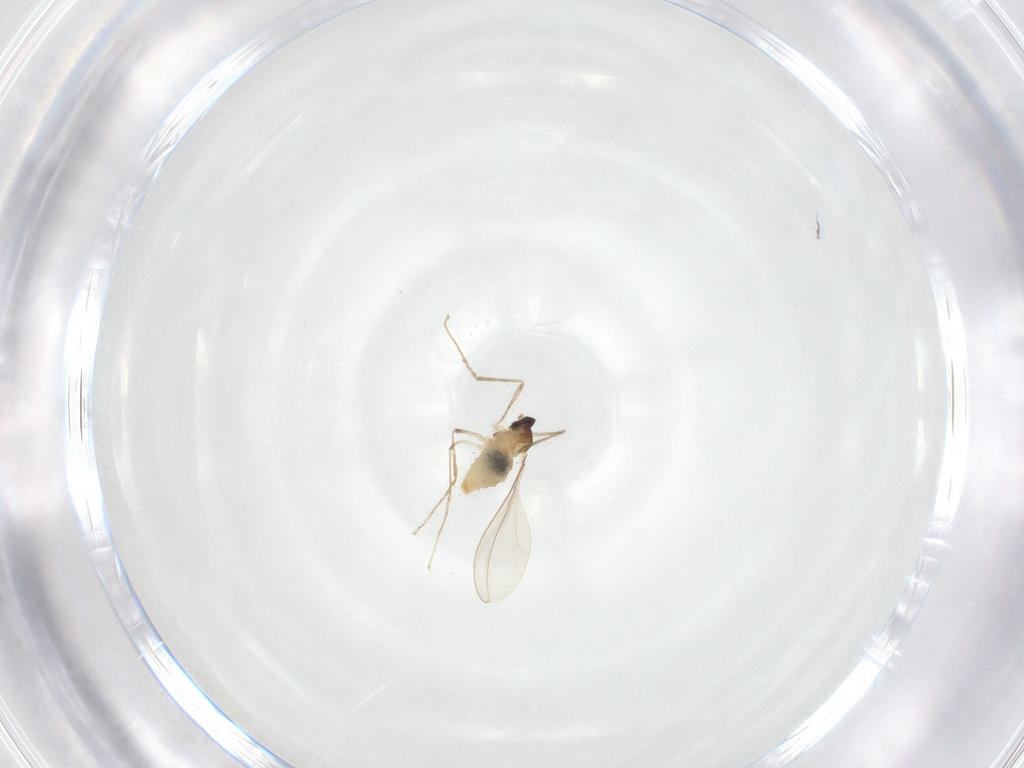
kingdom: Animalia
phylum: Arthropoda
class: Insecta
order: Diptera
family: Cecidomyiidae
